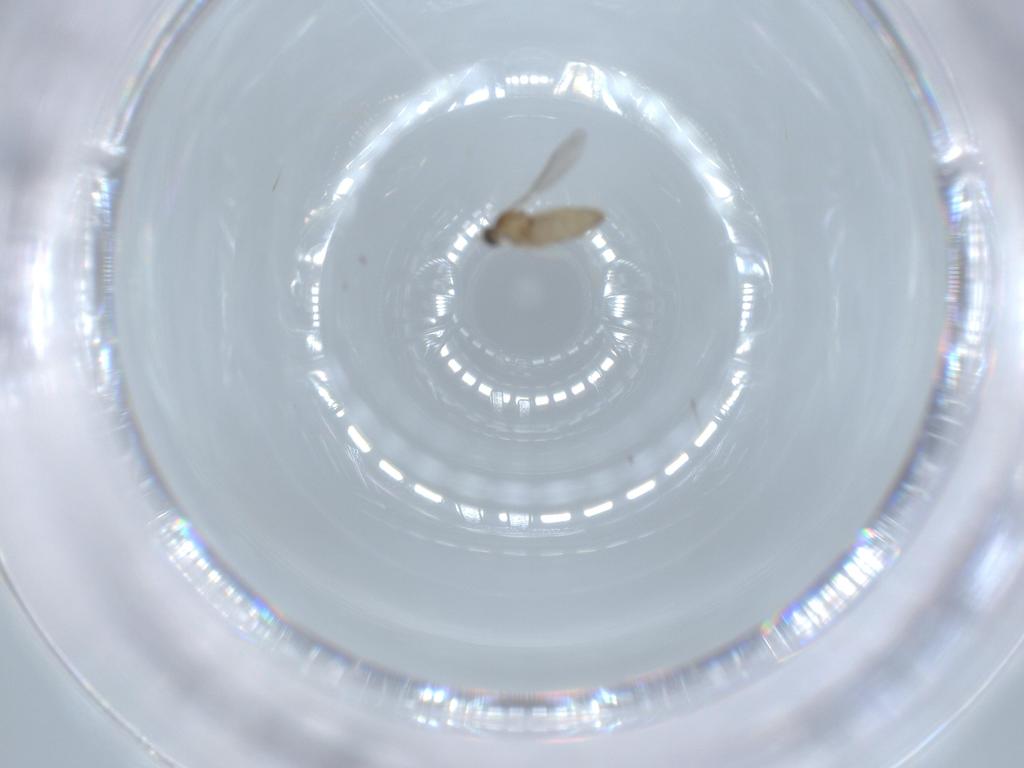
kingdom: Animalia
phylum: Arthropoda
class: Insecta
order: Diptera
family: Cecidomyiidae
